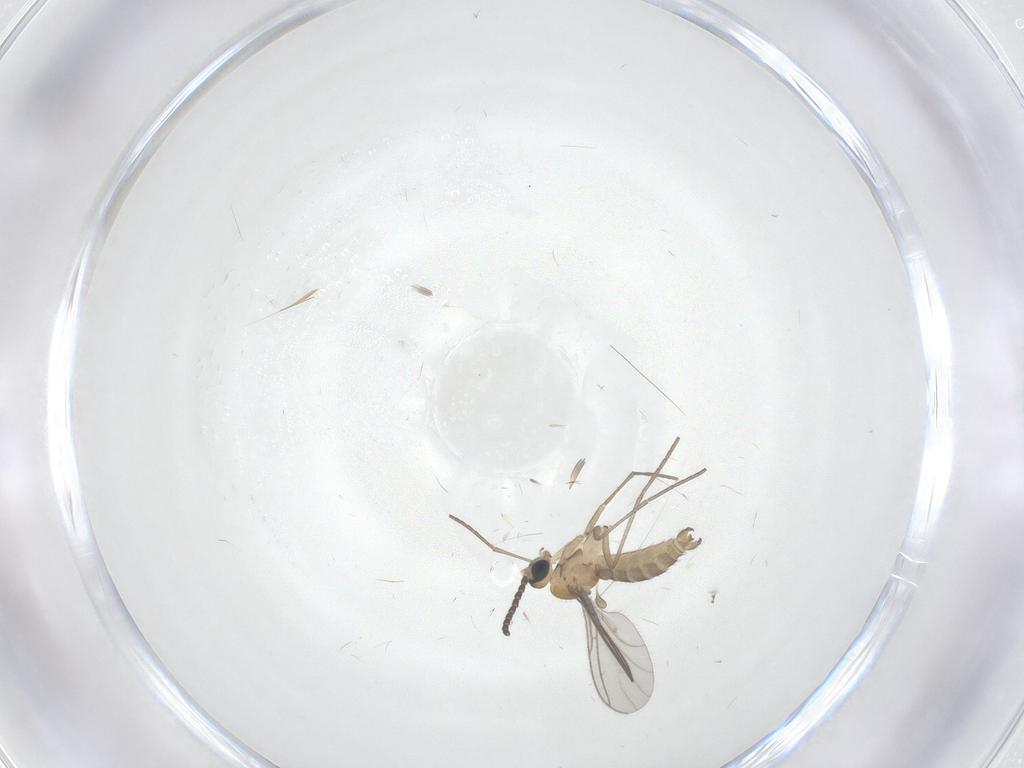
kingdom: Animalia
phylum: Arthropoda
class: Insecta
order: Diptera
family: Sciaridae
